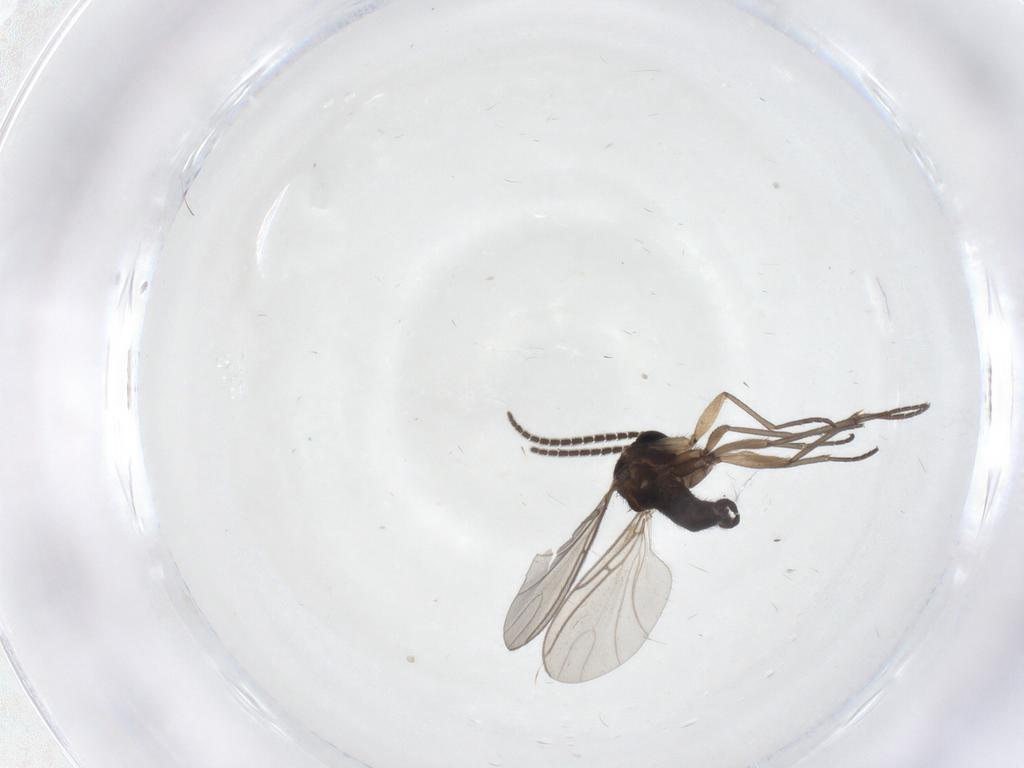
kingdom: Animalia
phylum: Arthropoda
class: Insecta
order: Diptera
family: Sciaridae
